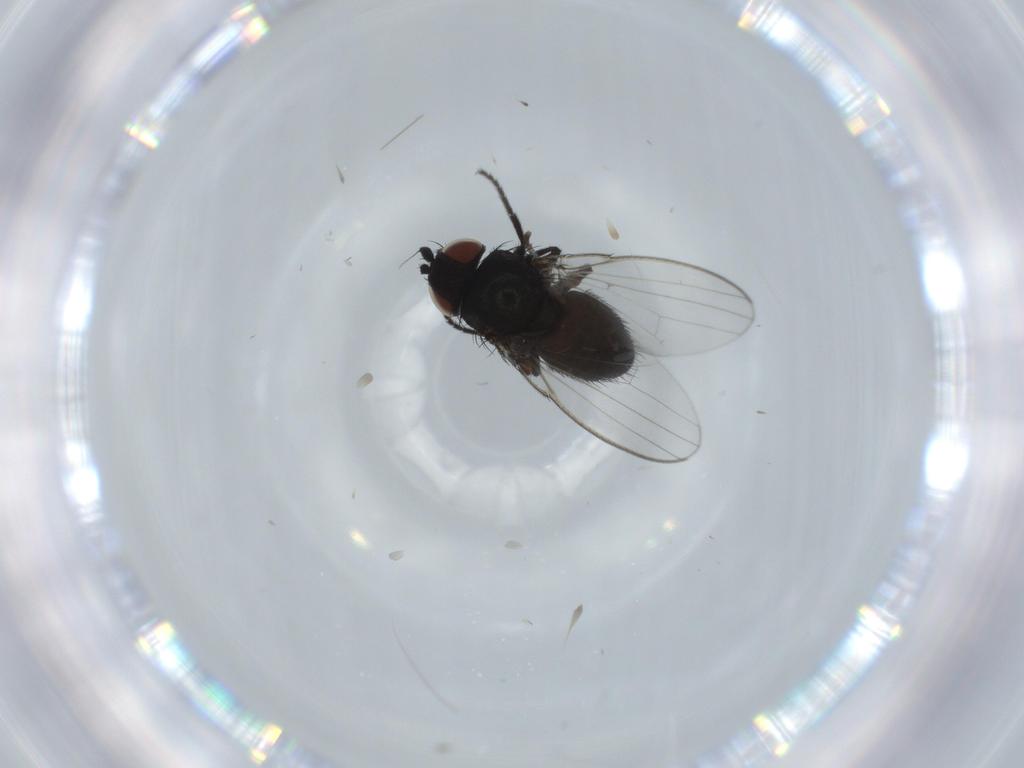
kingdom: Animalia
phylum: Arthropoda
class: Insecta
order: Diptera
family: Milichiidae
